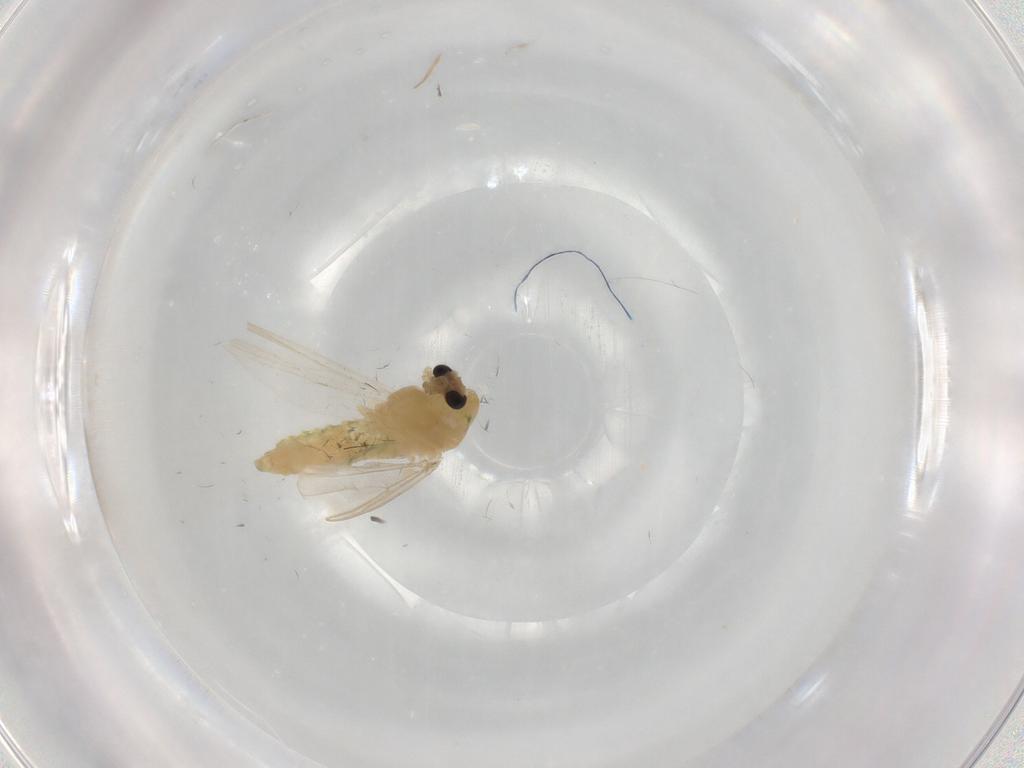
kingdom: Animalia
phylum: Arthropoda
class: Insecta
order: Diptera
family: Chironomidae
